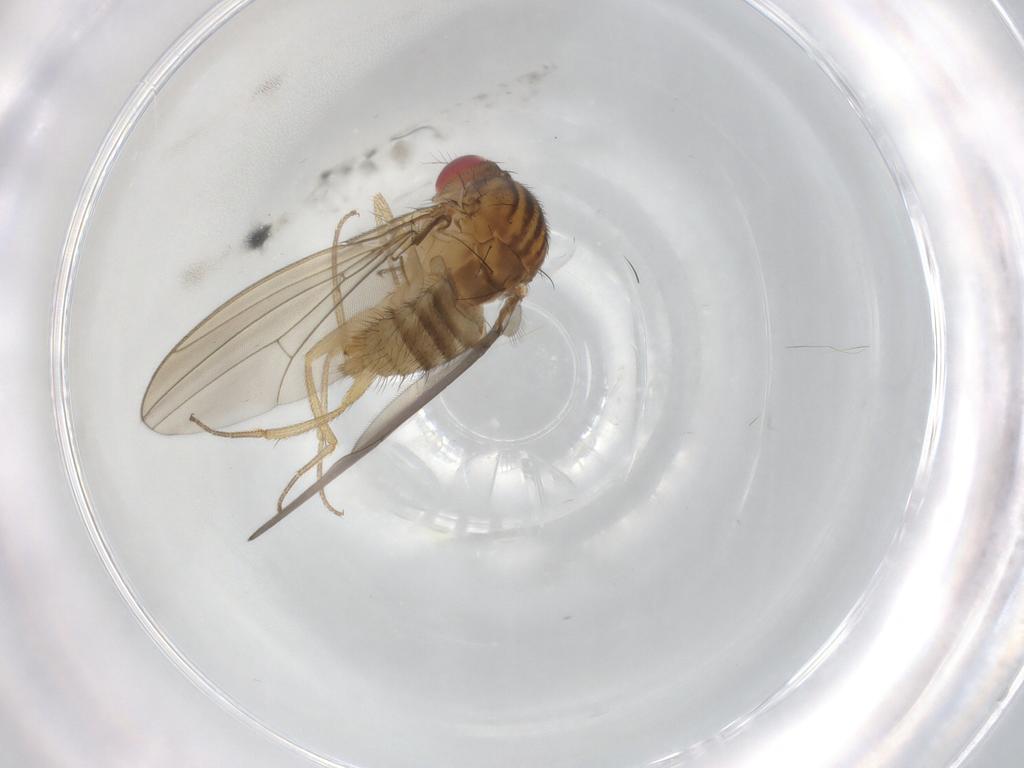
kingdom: Animalia
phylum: Arthropoda
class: Insecta
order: Diptera
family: Drosophilidae
